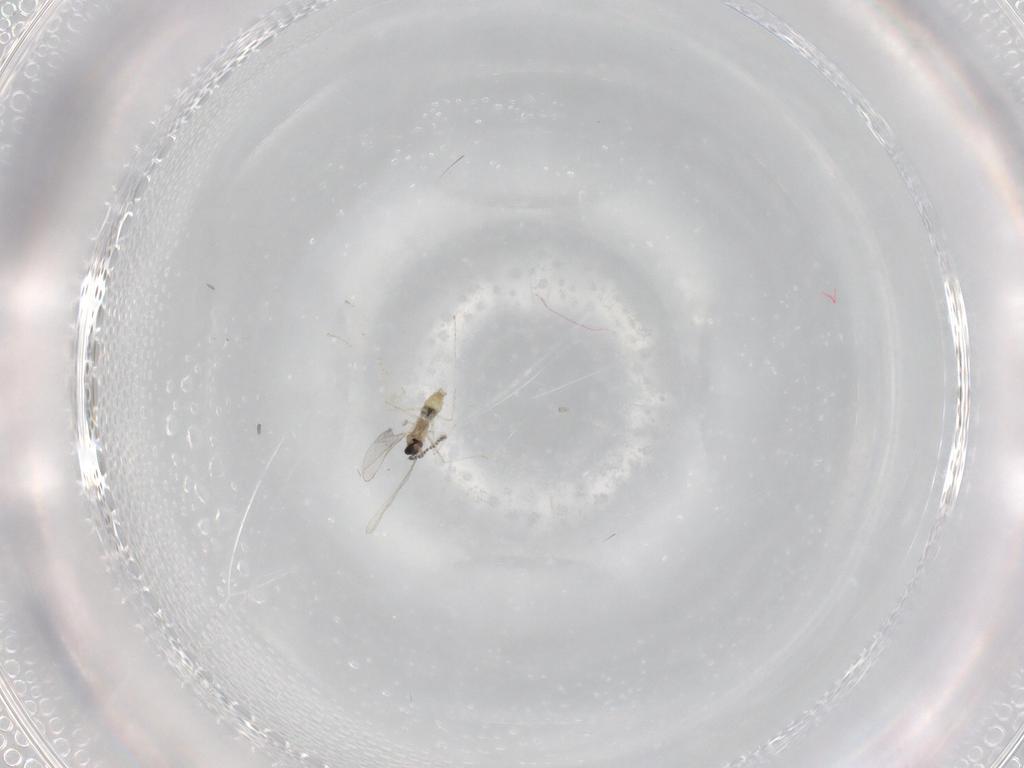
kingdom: Animalia
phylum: Arthropoda
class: Insecta
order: Diptera
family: Cecidomyiidae
